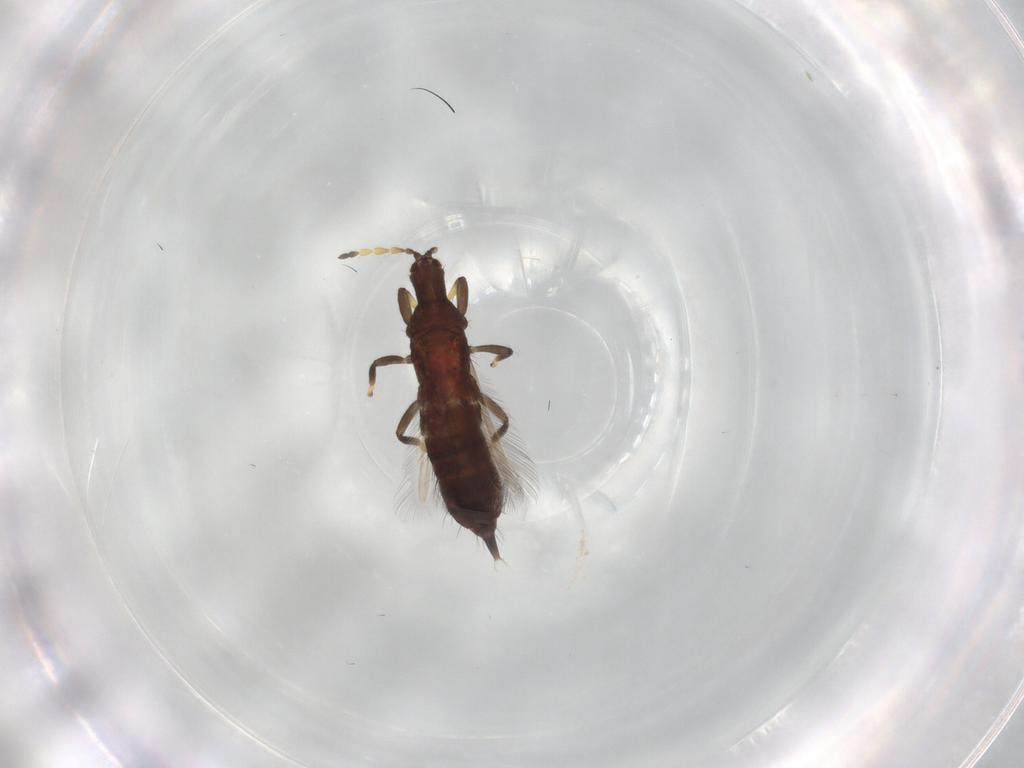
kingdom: Animalia
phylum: Arthropoda
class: Insecta
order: Thysanoptera
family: Phlaeothripidae
